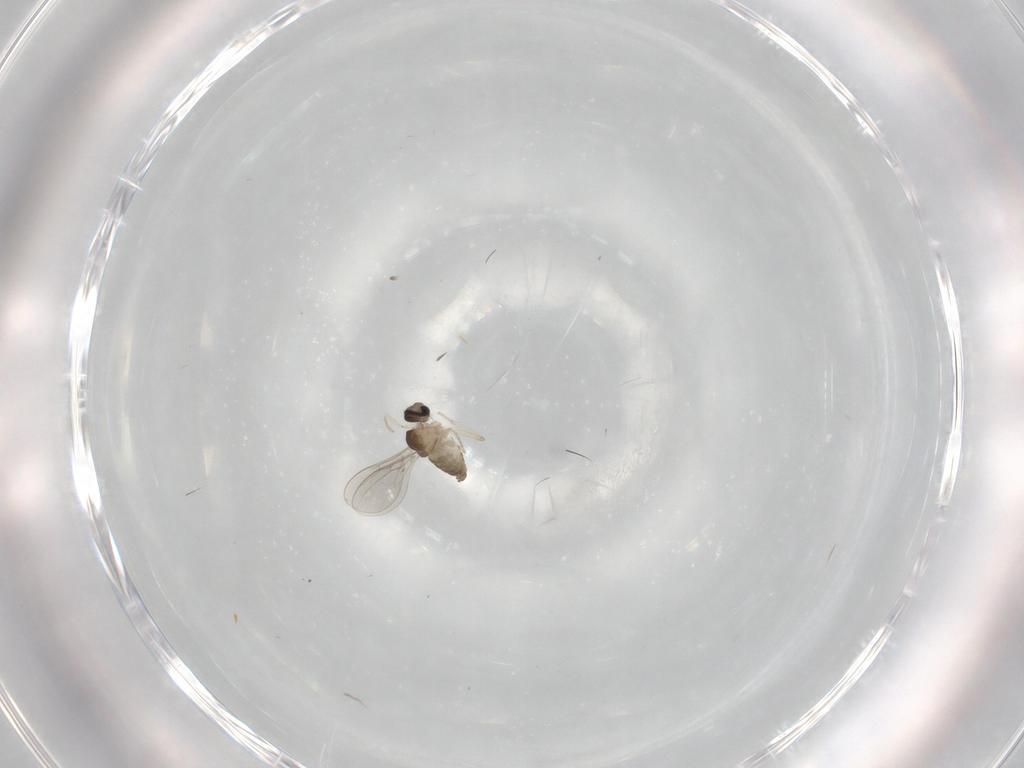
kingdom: Animalia
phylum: Arthropoda
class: Insecta
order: Diptera
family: Cecidomyiidae
